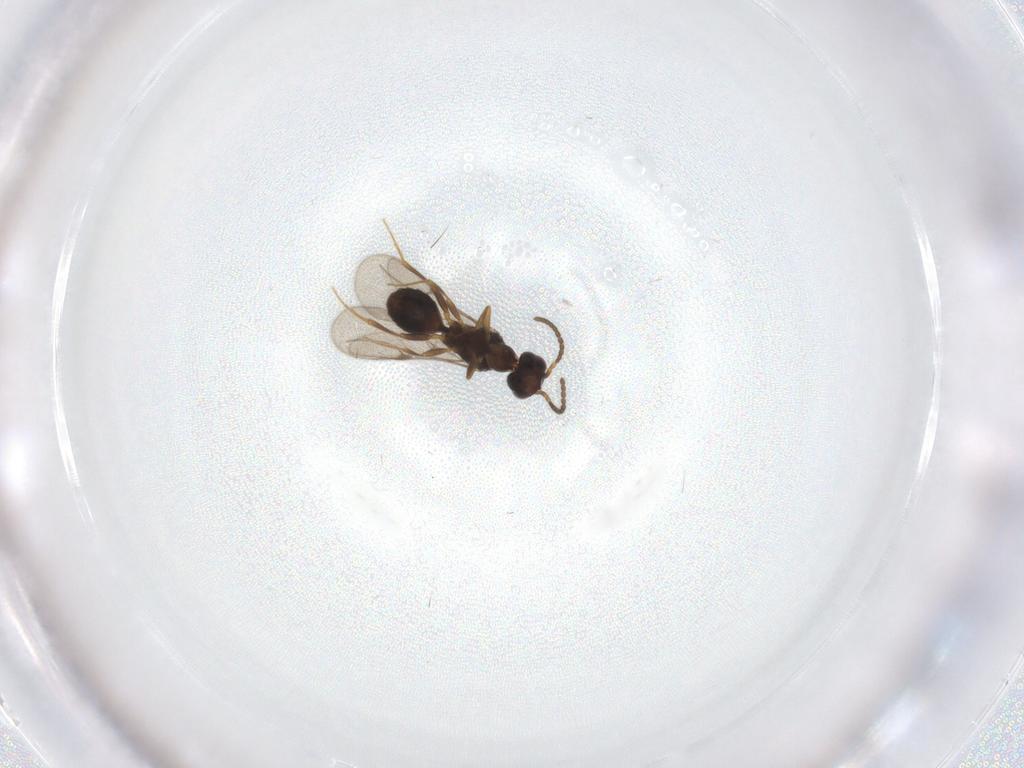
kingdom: Animalia
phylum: Arthropoda
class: Insecta
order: Hymenoptera
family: Bethylidae
